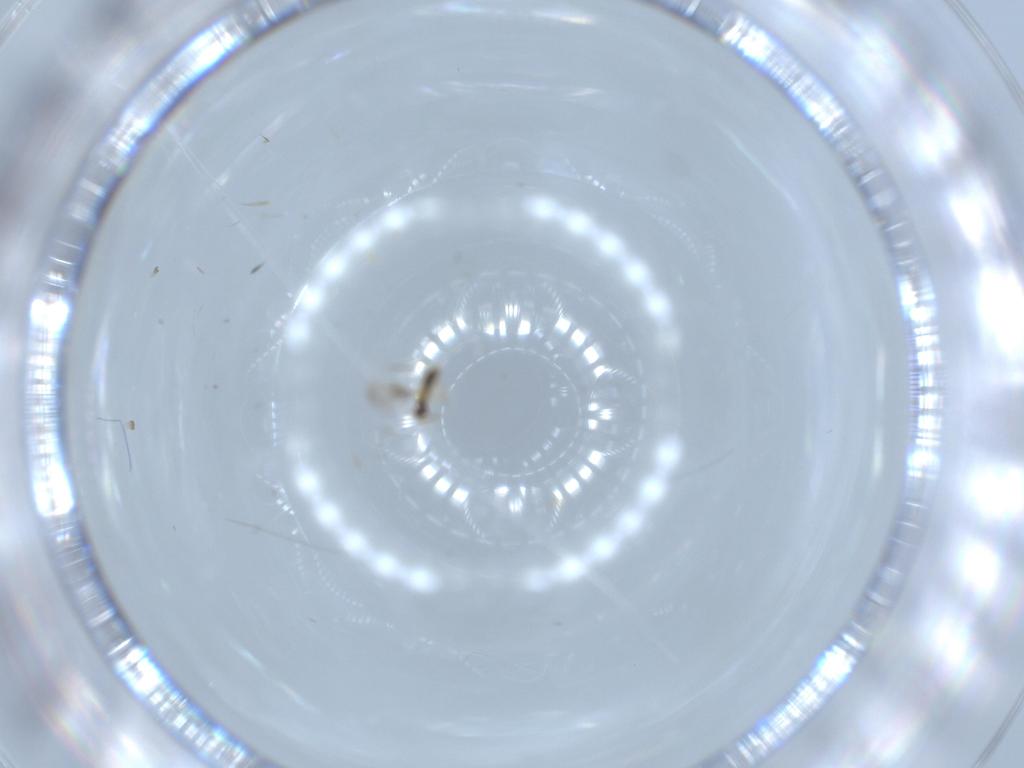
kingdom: Animalia
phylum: Arthropoda
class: Insecta
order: Hymenoptera
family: Aphelinidae
